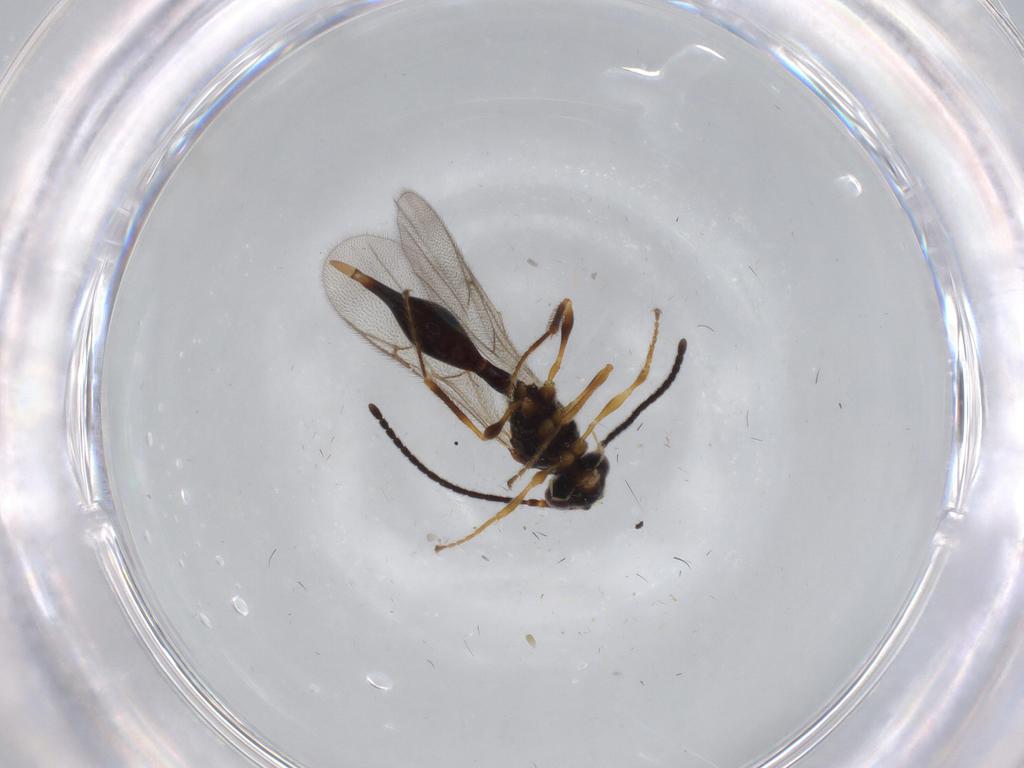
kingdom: Animalia
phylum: Arthropoda
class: Insecta
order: Hymenoptera
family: Diapriidae
